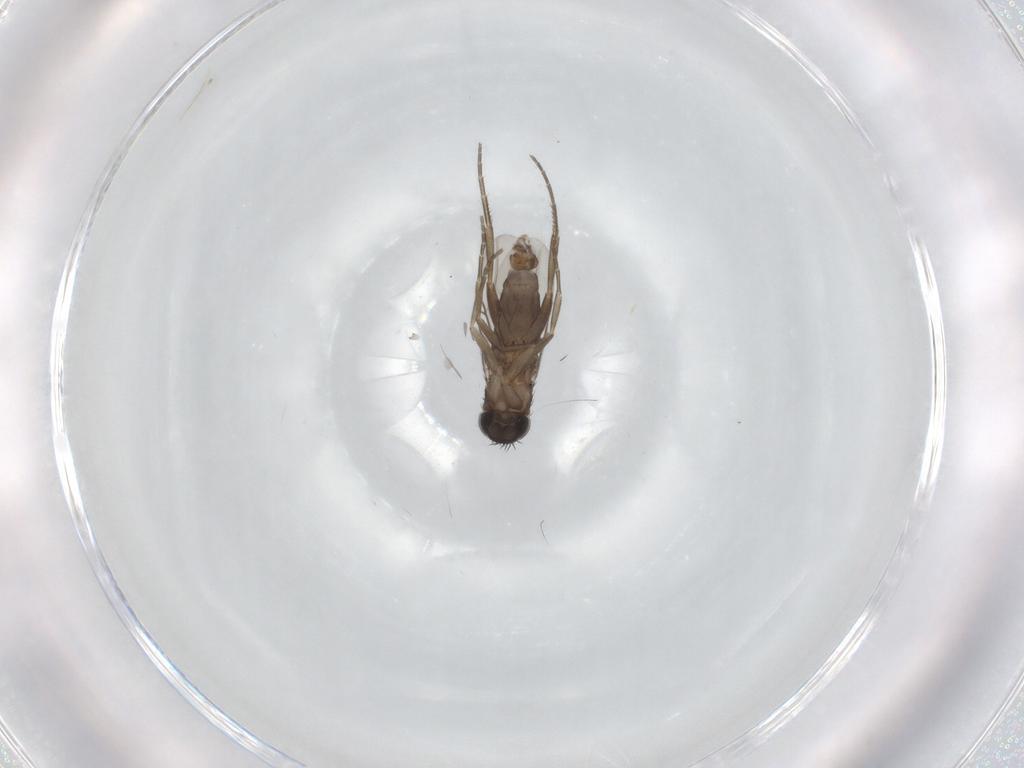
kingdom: Animalia
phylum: Arthropoda
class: Insecta
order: Diptera
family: Phoridae
